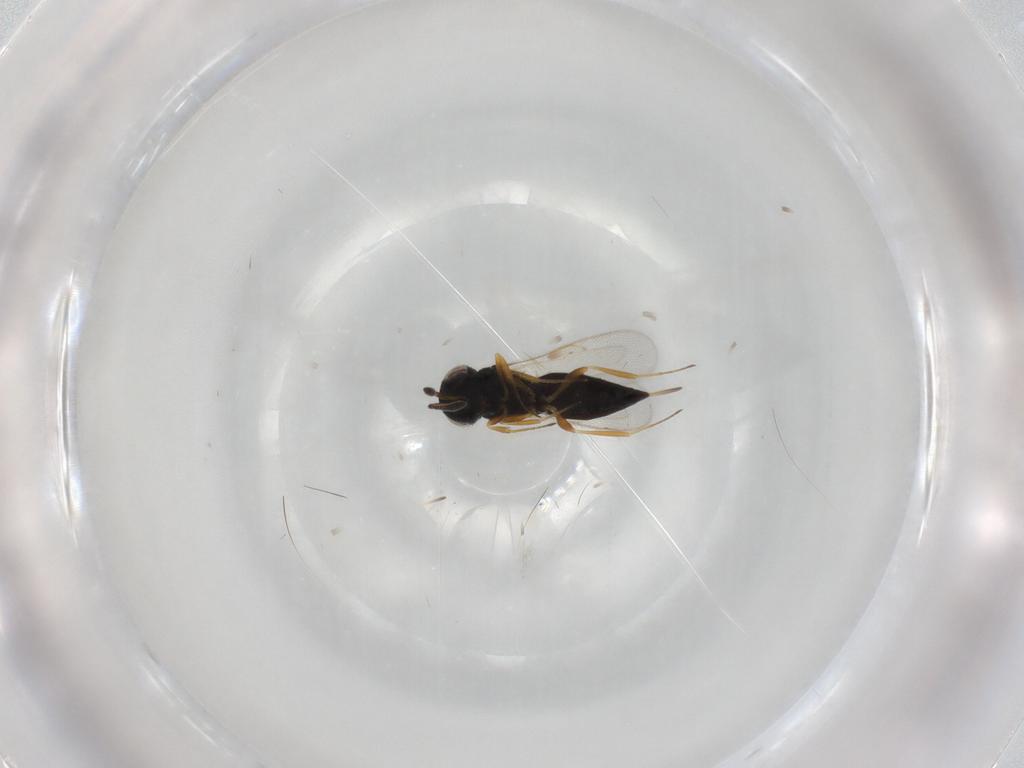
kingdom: Animalia
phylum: Arthropoda
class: Insecta
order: Hymenoptera
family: Scelionidae
